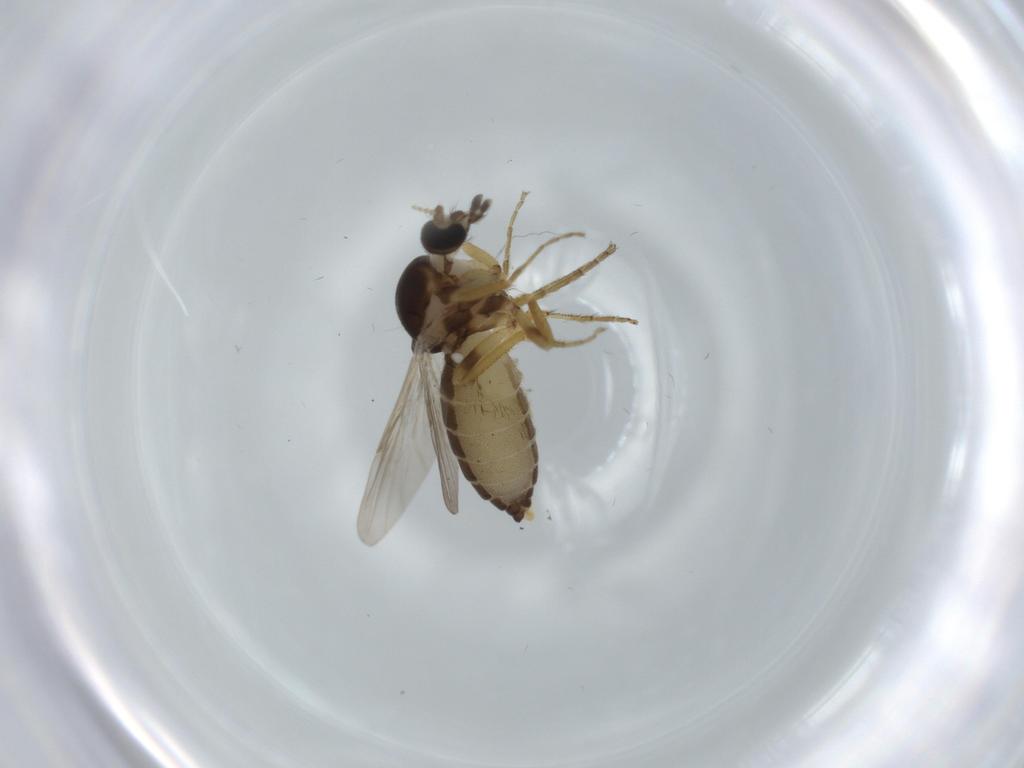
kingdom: Animalia
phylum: Arthropoda
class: Insecta
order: Diptera
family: Ceratopogonidae
